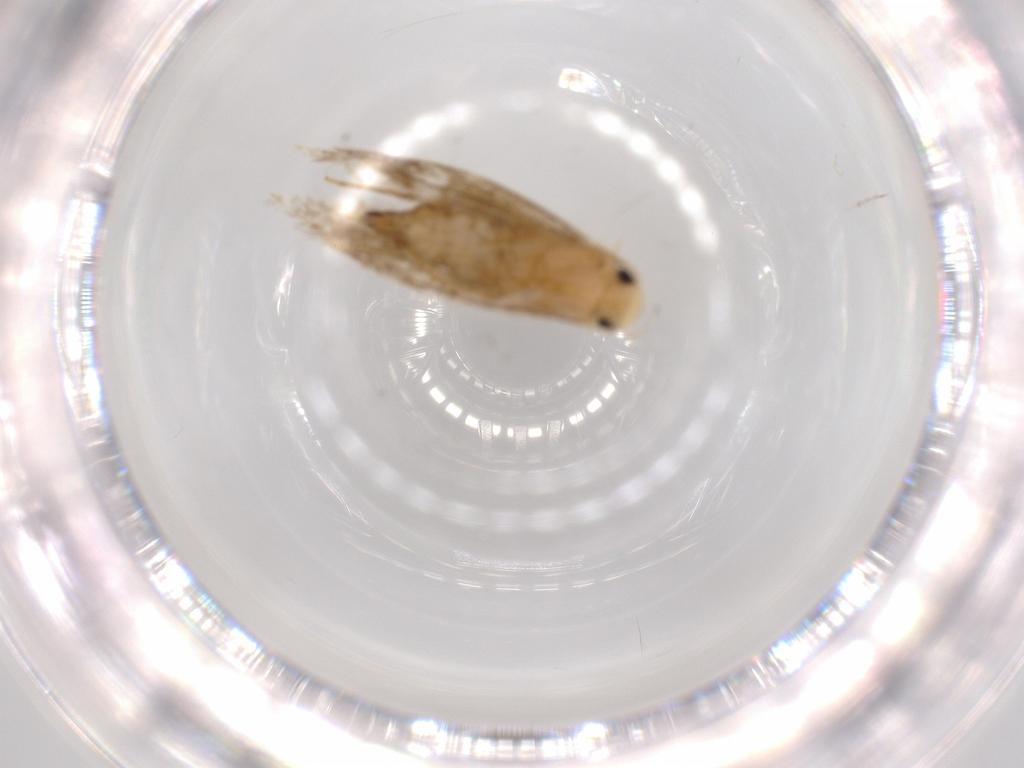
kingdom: Animalia
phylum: Arthropoda
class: Insecta
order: Lepidoptera
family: Tineidae
